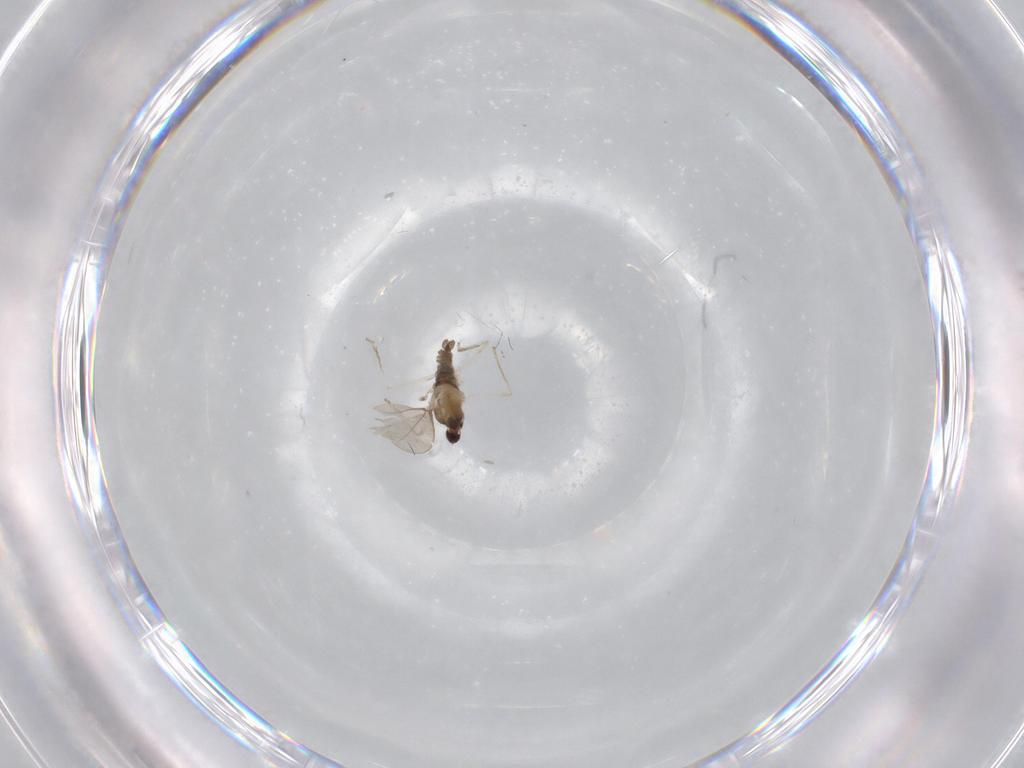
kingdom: Animalia
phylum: Arthropoda
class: Insecta
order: Diptera
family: Cecidomyiidae
